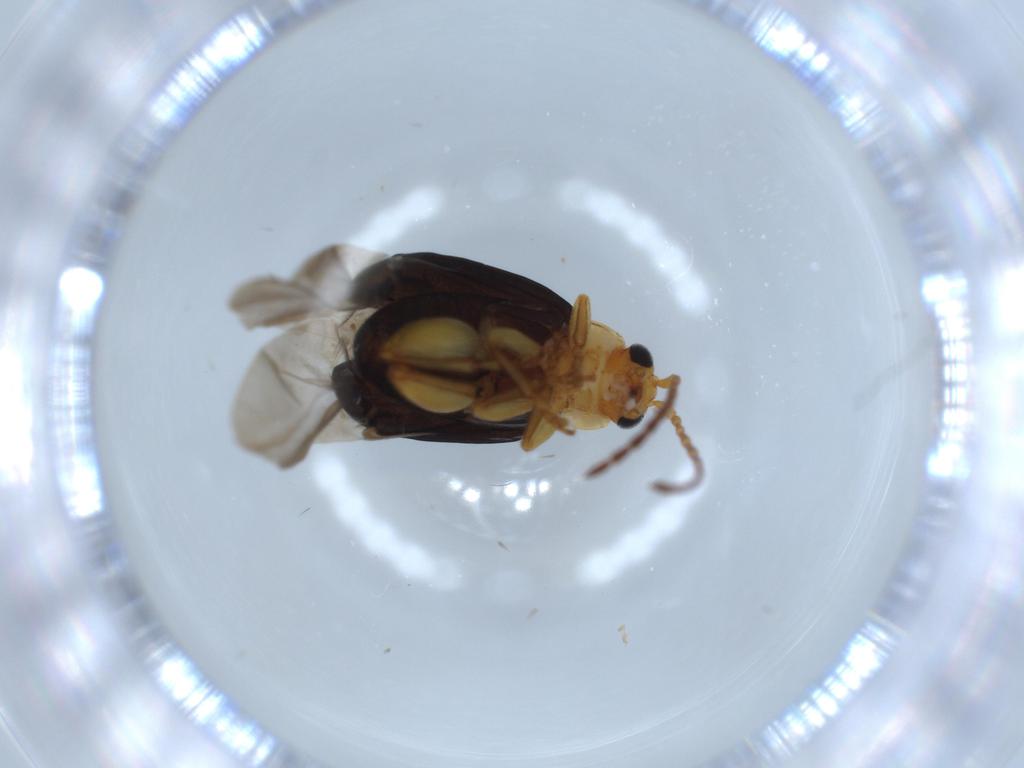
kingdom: Animalia
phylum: Arthropoda
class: Insecta
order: Coleoptera
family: Chrysomelidae
